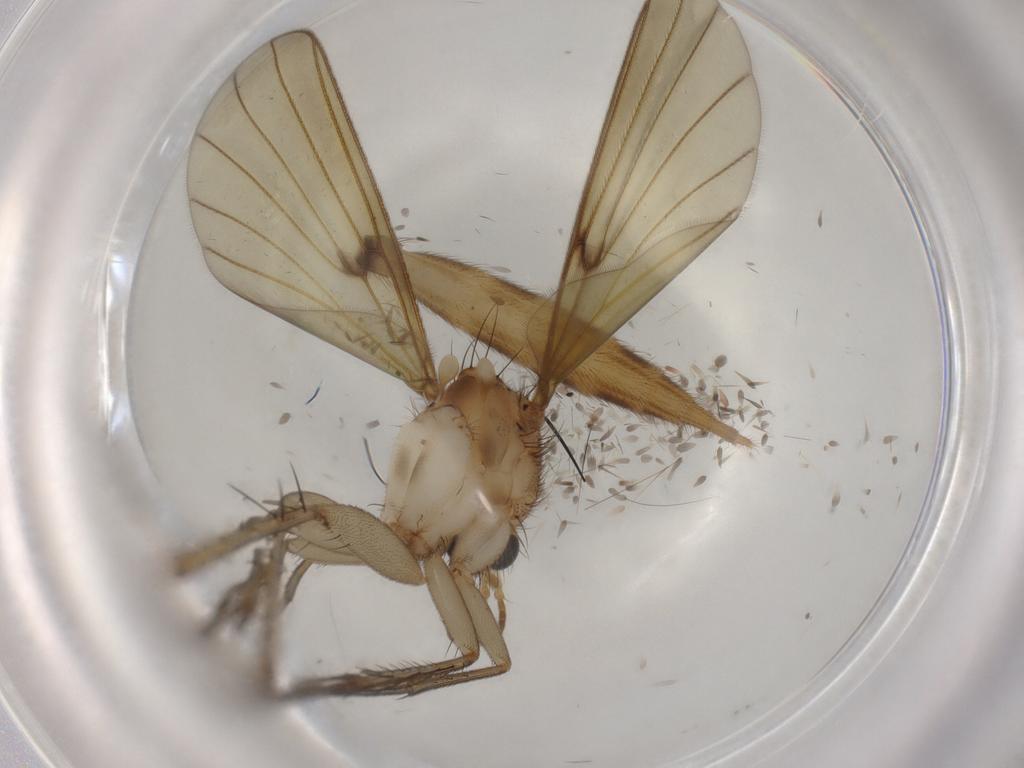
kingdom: Animalia
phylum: Arthropoda
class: Insecta
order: Diptera
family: Mycetophilidae
